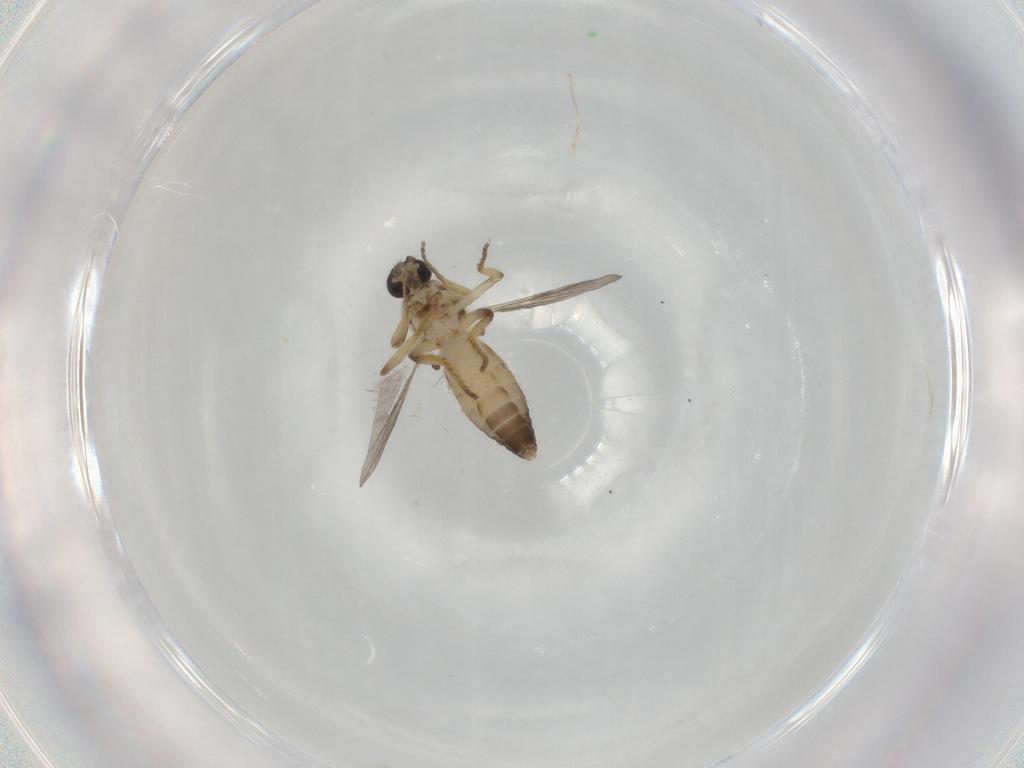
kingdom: Animalia
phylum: Arthropoda
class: Insecta
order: Diptera
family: Ceratopogonidae
